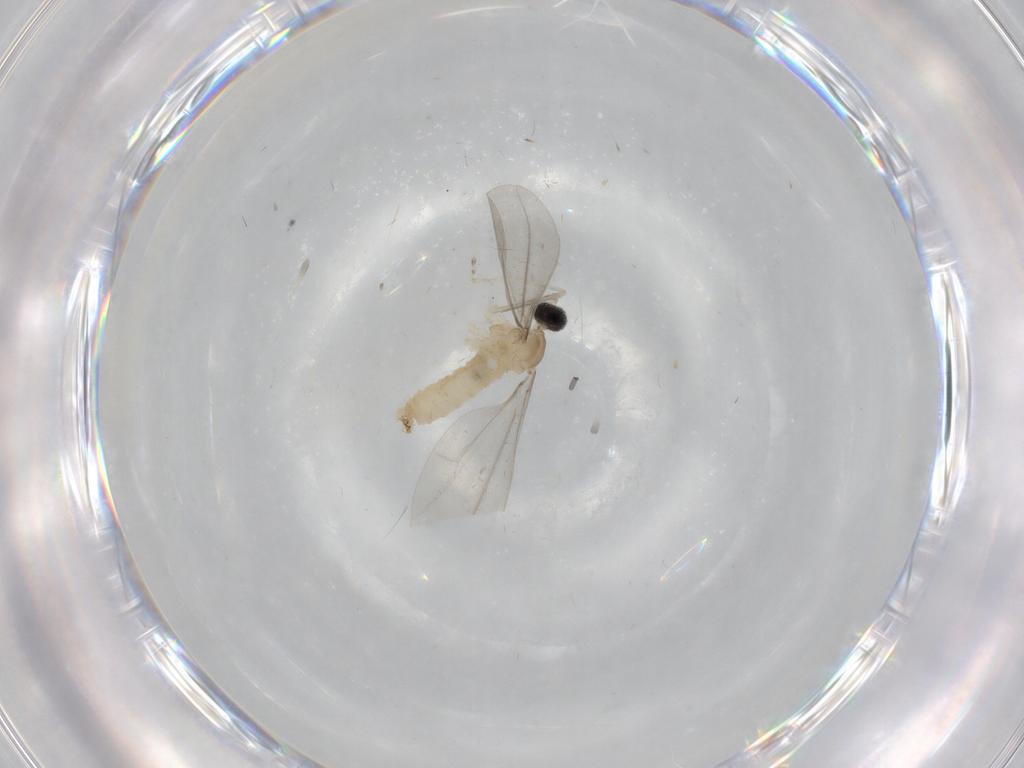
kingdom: Animalia
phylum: Arthropoda
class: Insecta
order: Diptera
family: Cecidomyiidae
